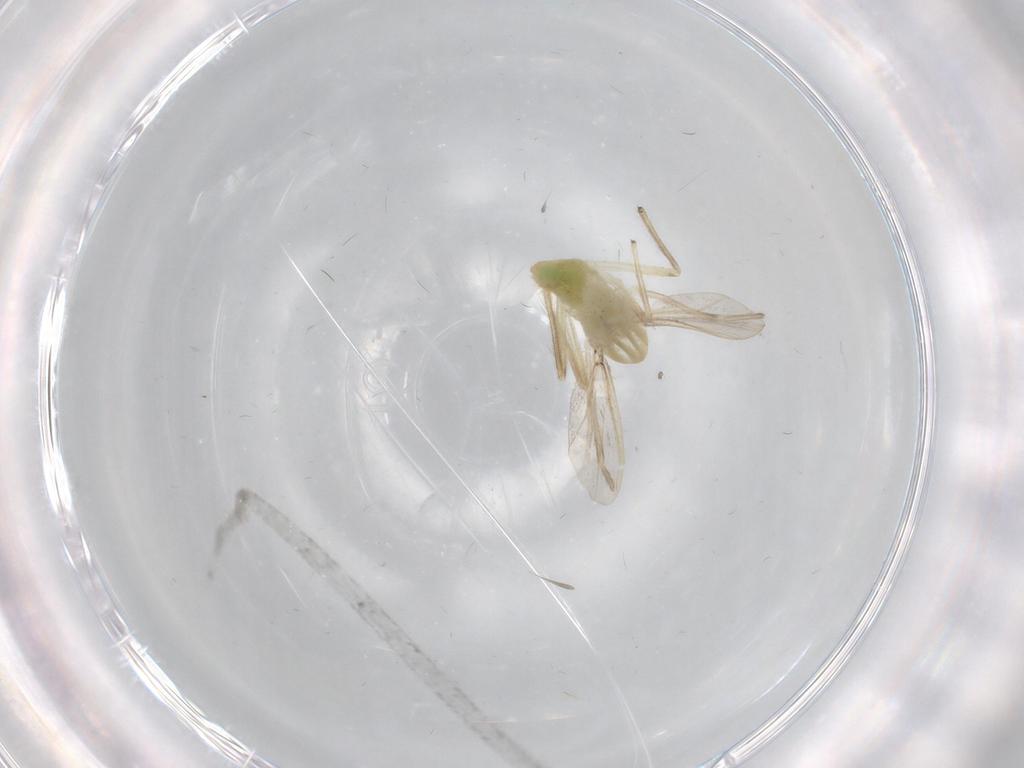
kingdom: Animalia
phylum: Arthropoda
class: Insecta
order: Diptera
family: Chironomidae
